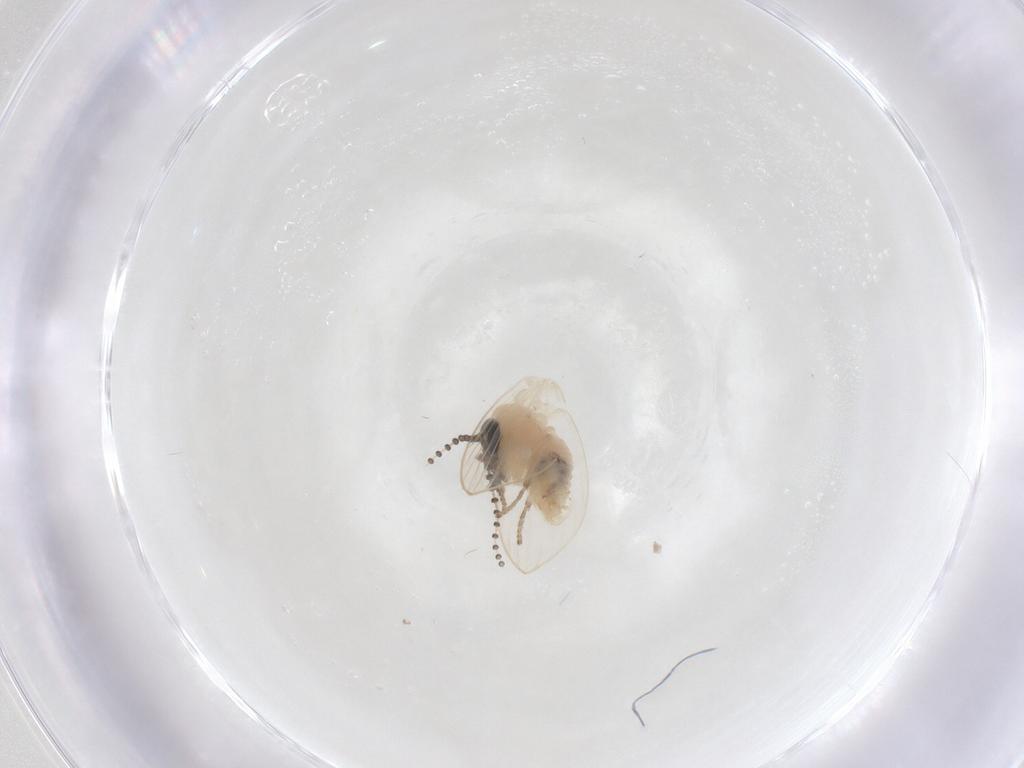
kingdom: Animalia
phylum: Arthropoda
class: Insecta
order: Diptera
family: Psychodidae
